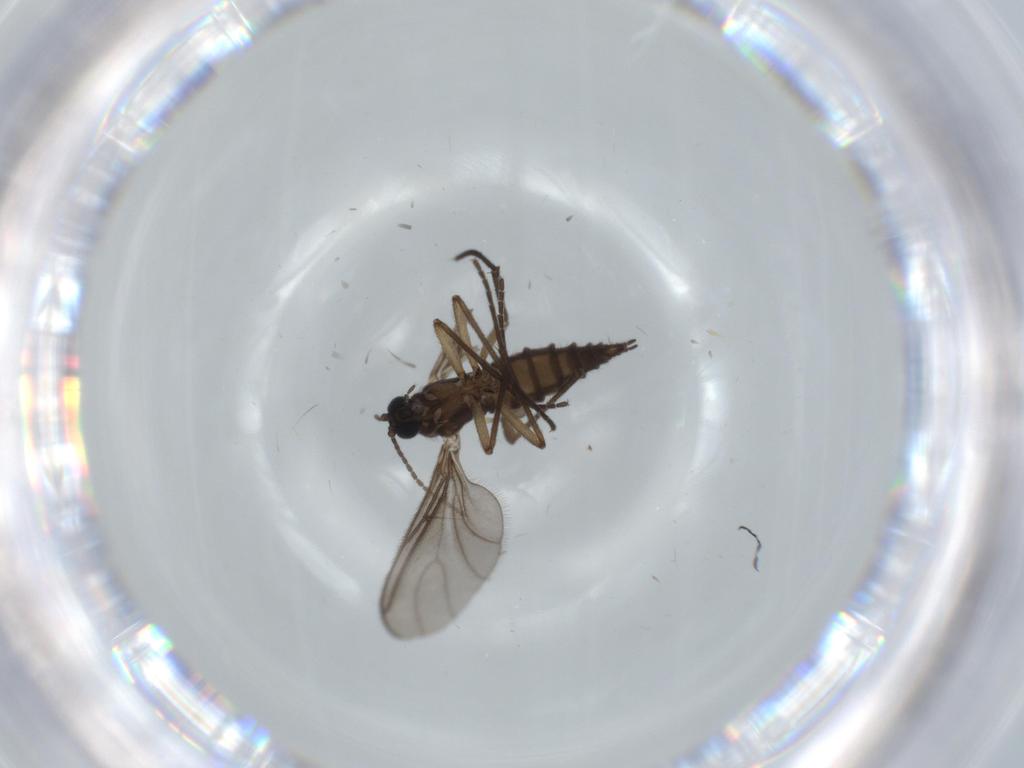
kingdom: Animalia
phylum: Arthropoda
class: Insecta
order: Diptera
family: Sciaridae
